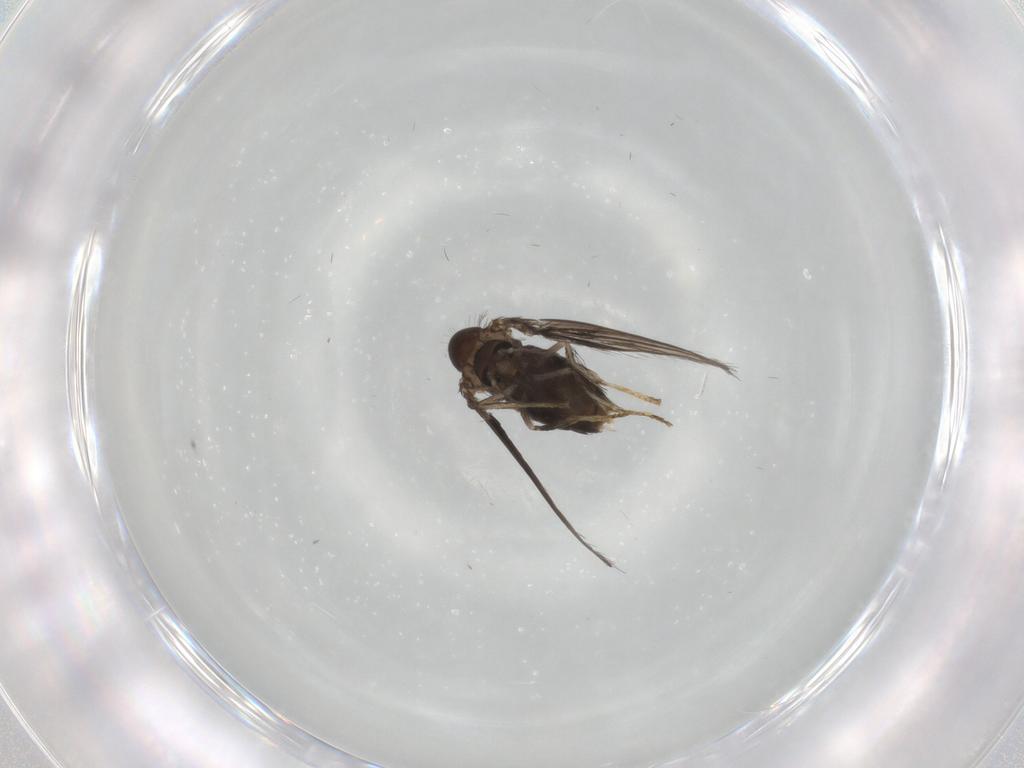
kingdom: Animalia
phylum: Arthropoda
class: Insecta
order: Diptera
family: Psychodidae
